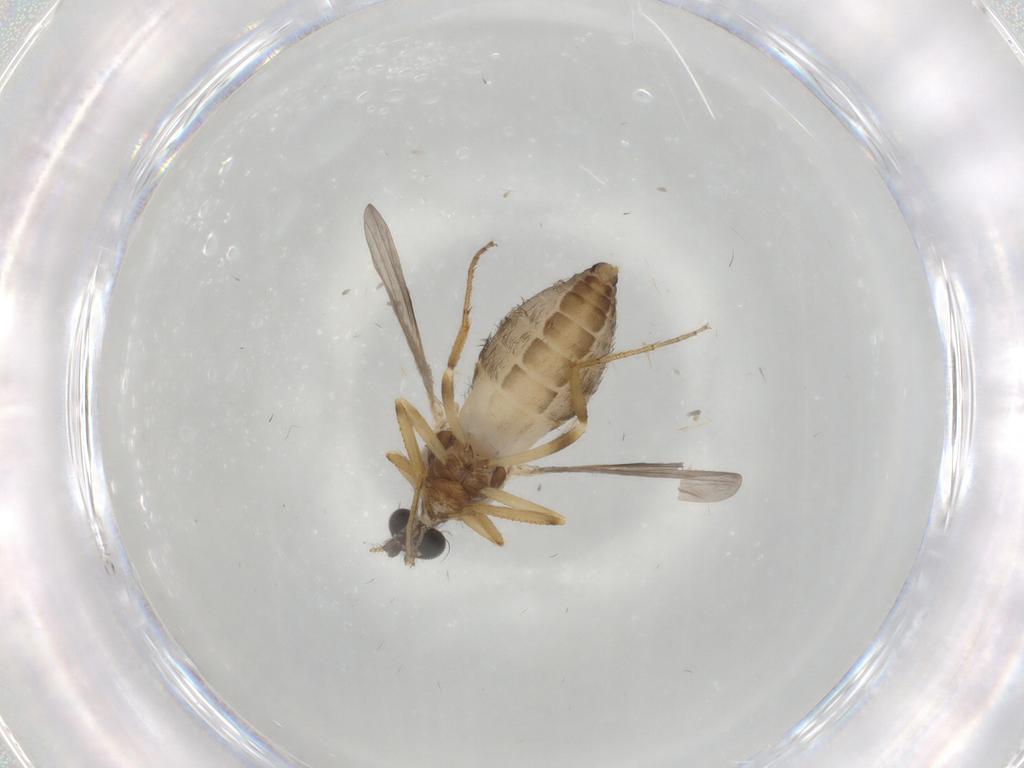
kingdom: Animalia
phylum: Arthropoda
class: Insecta
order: Diptera
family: Ceratopogonidae
